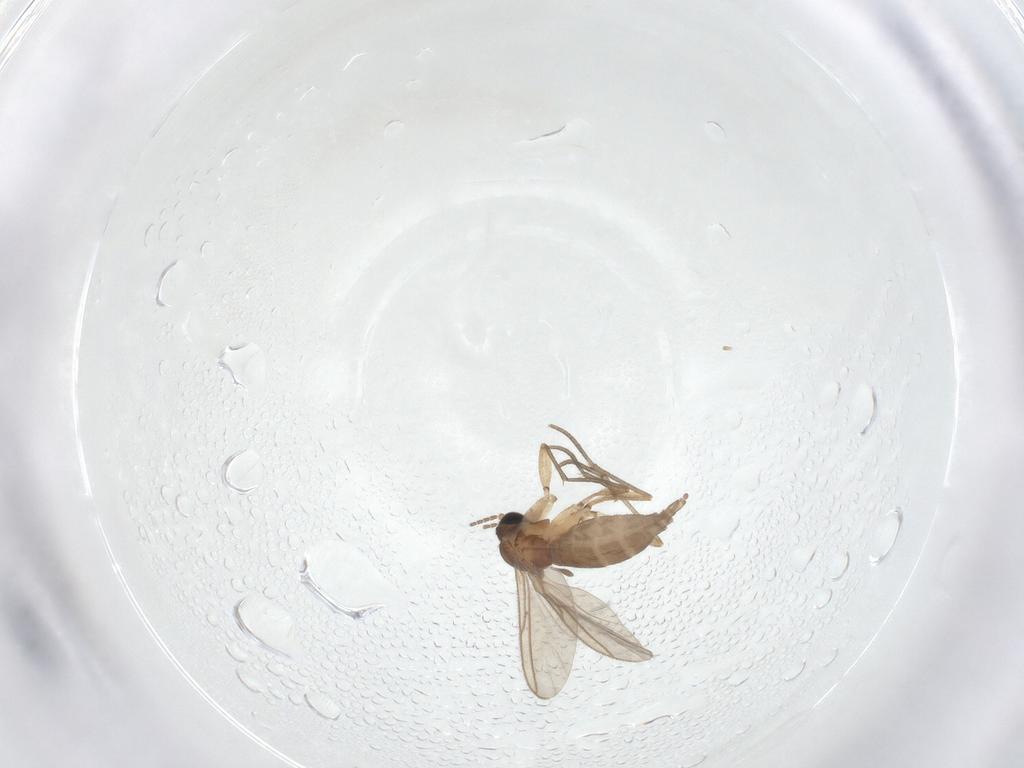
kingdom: Animalia
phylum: Arthropoda
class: Insecta
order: Diptera
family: Sciaridae
